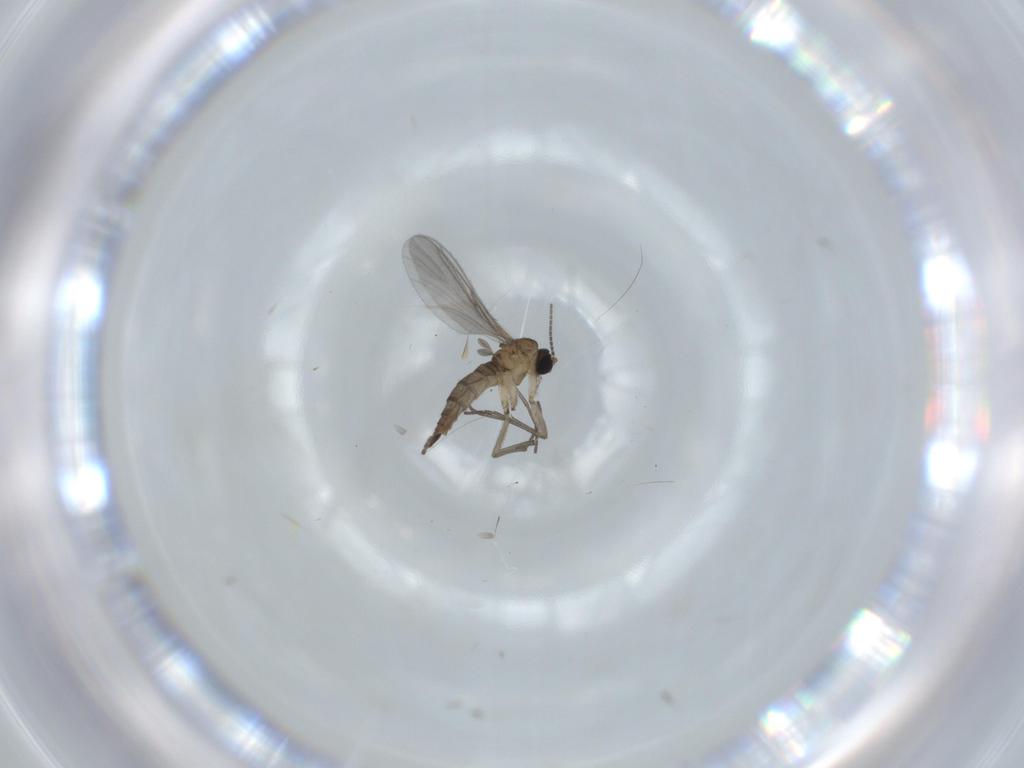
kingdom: Animalia
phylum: Arthropoda
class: Insecta
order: Diptera
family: Sciaridae
